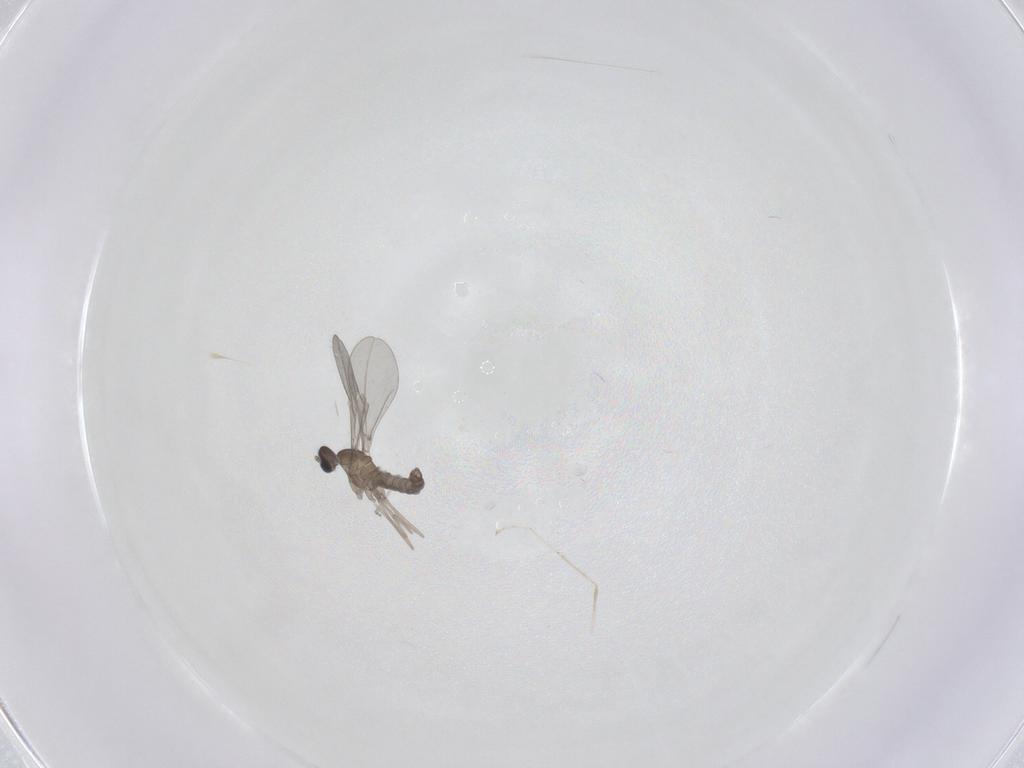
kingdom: Animalia
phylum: Arthropoda
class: Insecta
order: Diptera
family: Cecidomyiidae
